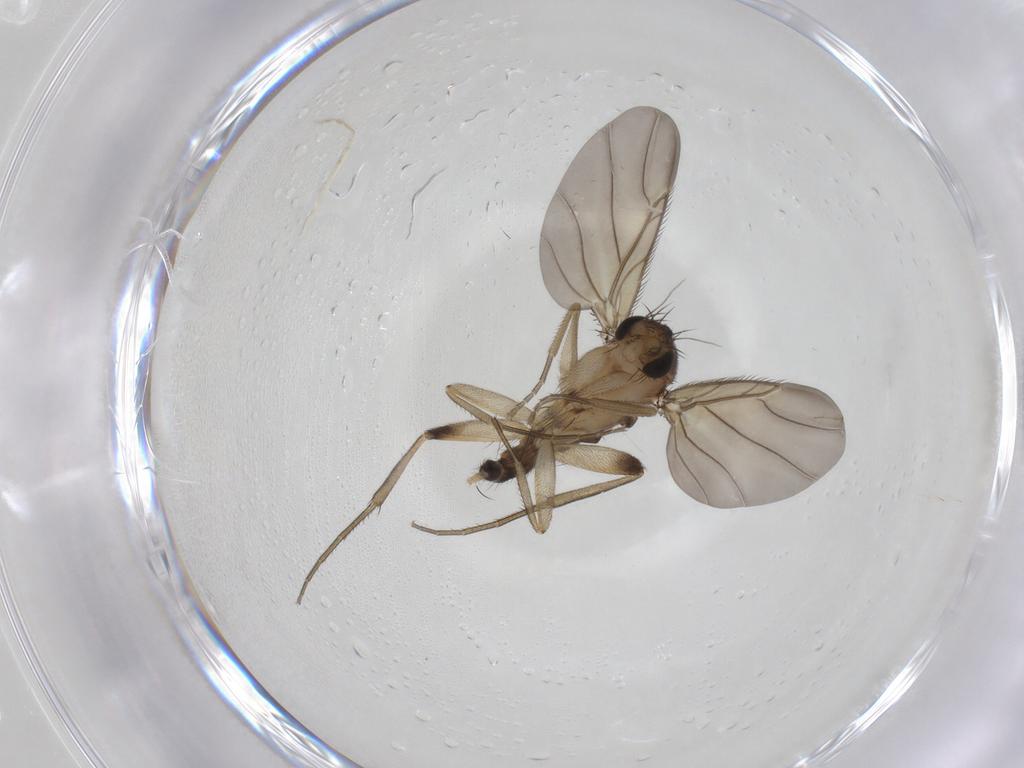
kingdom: Animalia
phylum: Arthropoda
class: Insecta
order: Diptera
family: Phoridae
